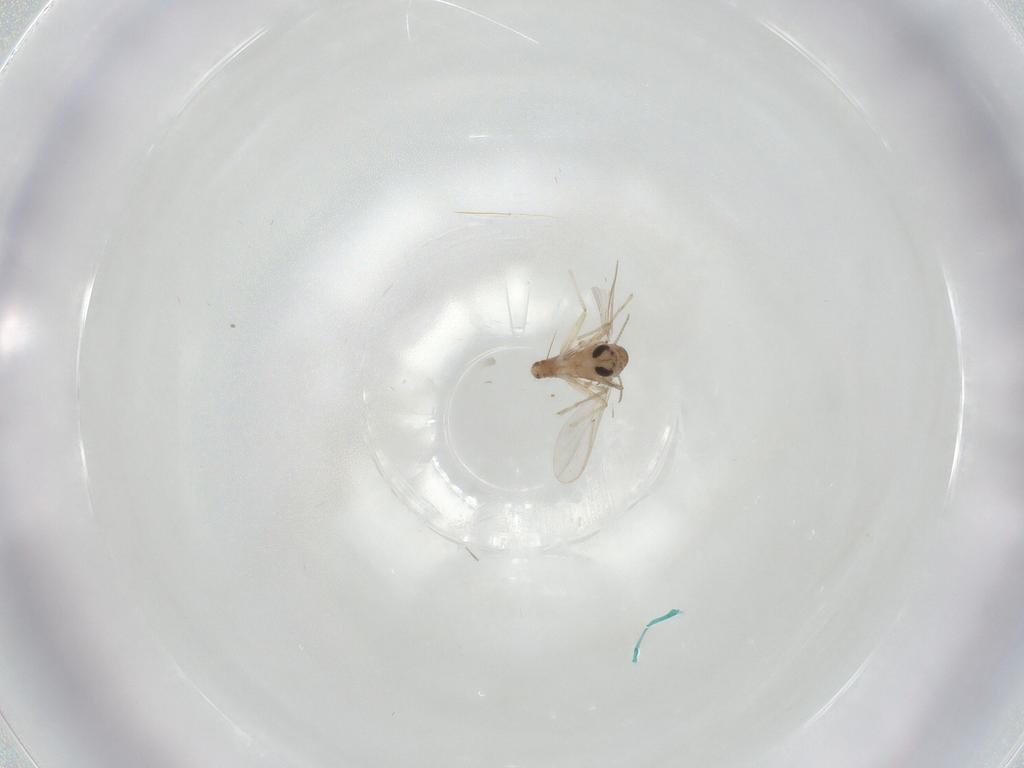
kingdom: Animalia
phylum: Arthropoda
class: Insecta
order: Diptera
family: Chironomidae
